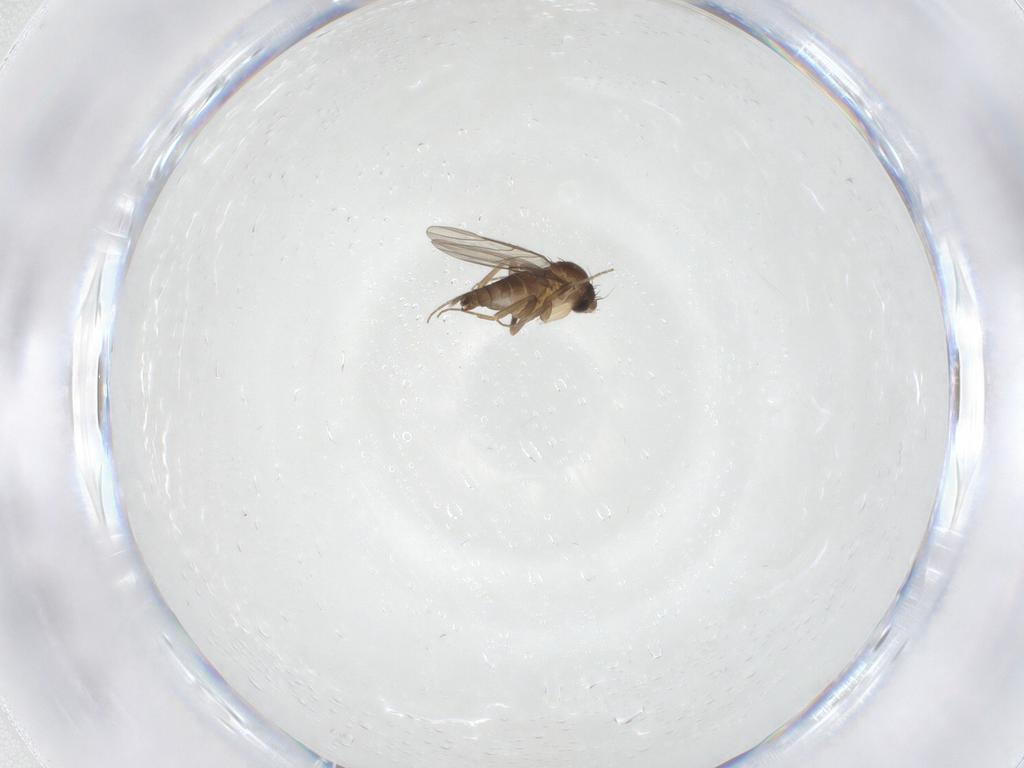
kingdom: Animalia
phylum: Arthropoda
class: Insecta
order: Diptera
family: Phoridae
